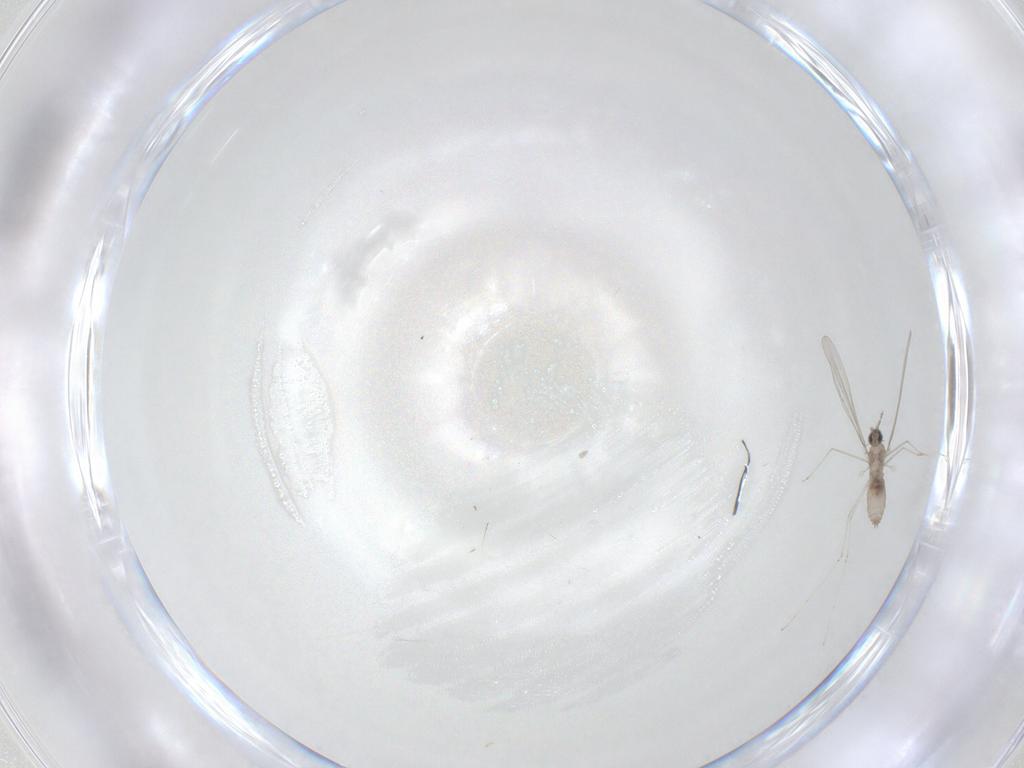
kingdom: Animalia
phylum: Arthropoda
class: Insecta
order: Diptera
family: Cecidomyiidae
